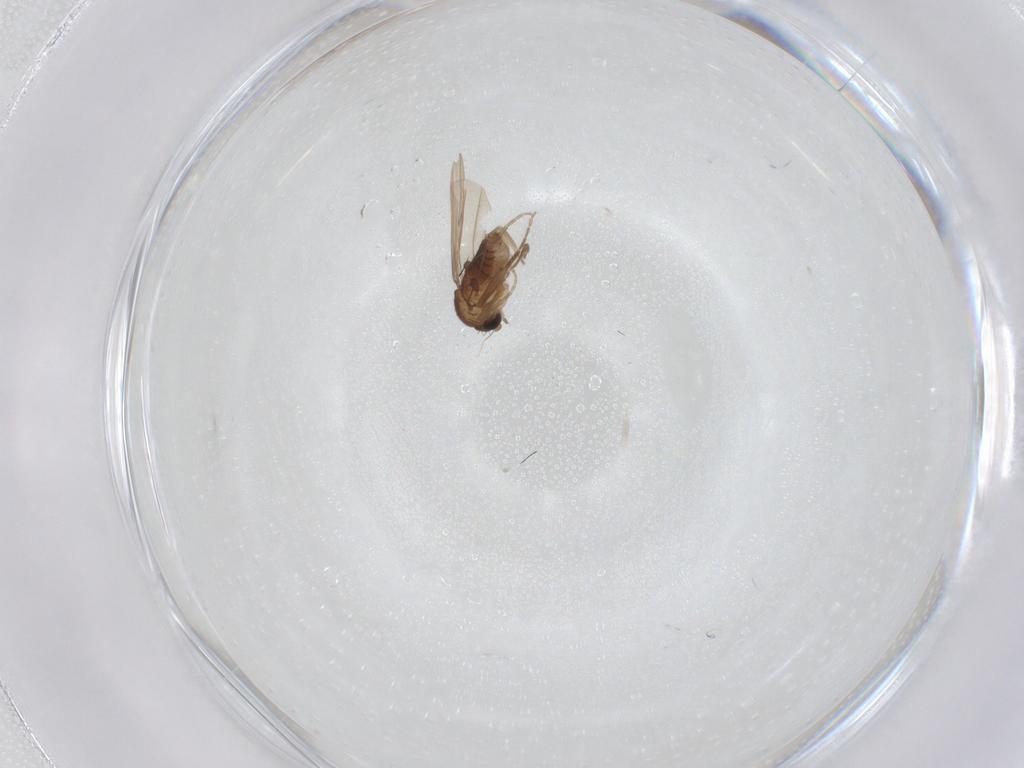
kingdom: Animalia
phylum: Arthropoda
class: Insecta
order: Diptera
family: Phoridae
